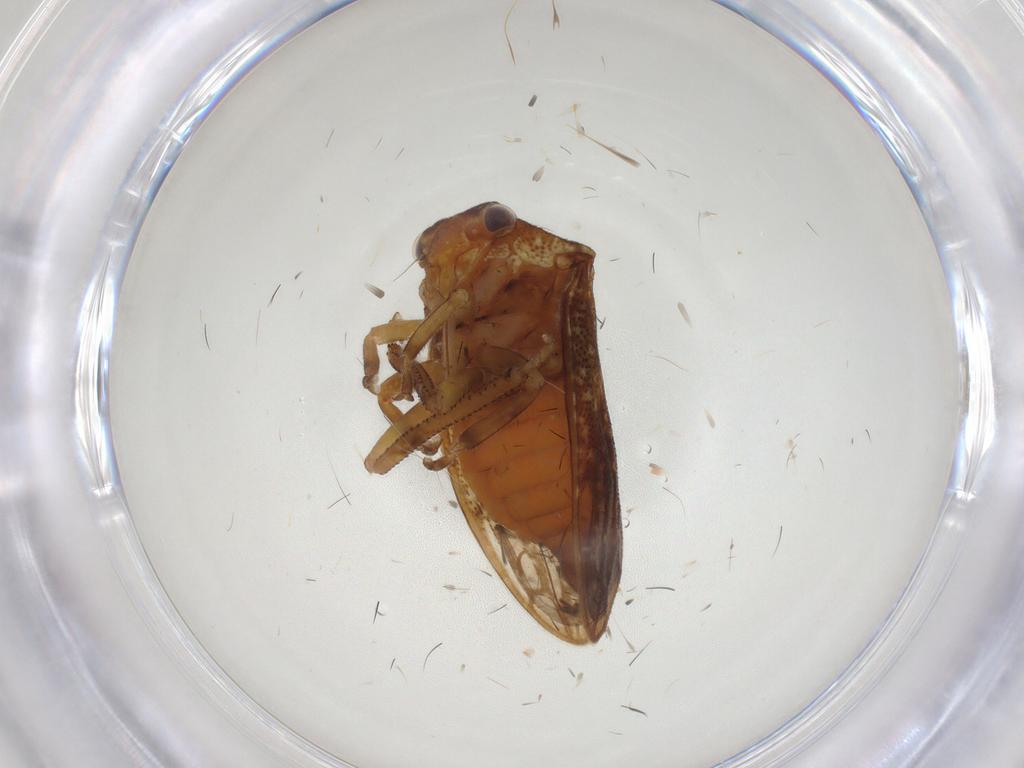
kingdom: Animalia
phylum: Arthropoda
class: Insecta
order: Hemiptera
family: Aetalionidae
